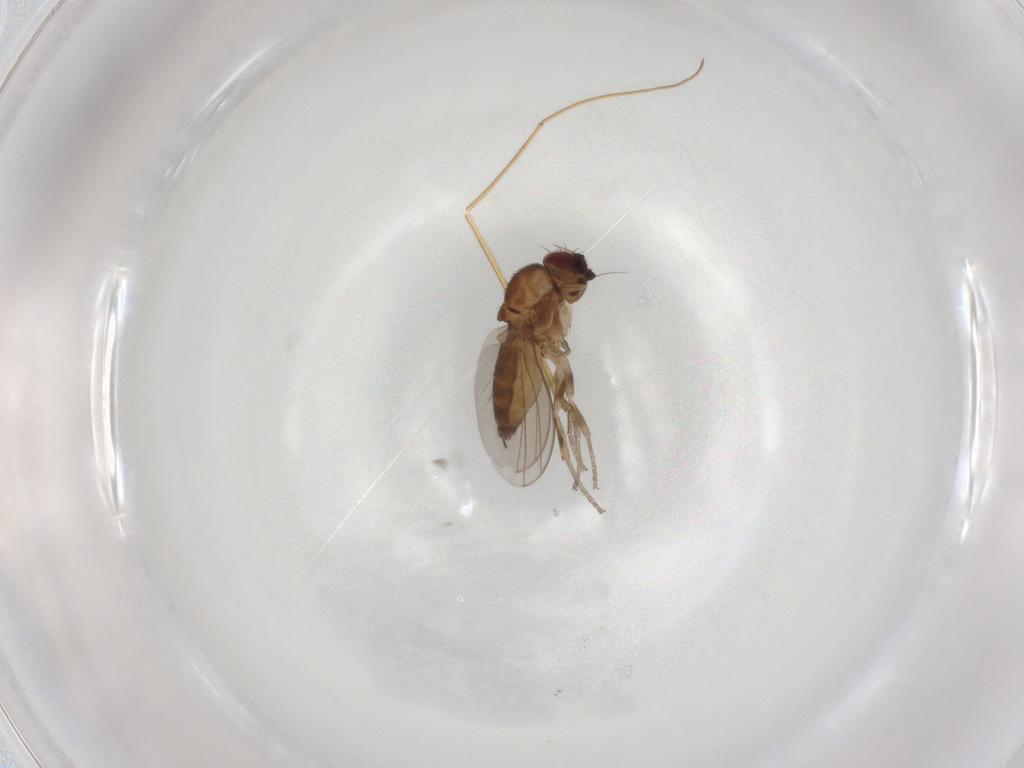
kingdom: Animalia
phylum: Arthropoda
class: Insecta
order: Diptera
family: Milichiidae
